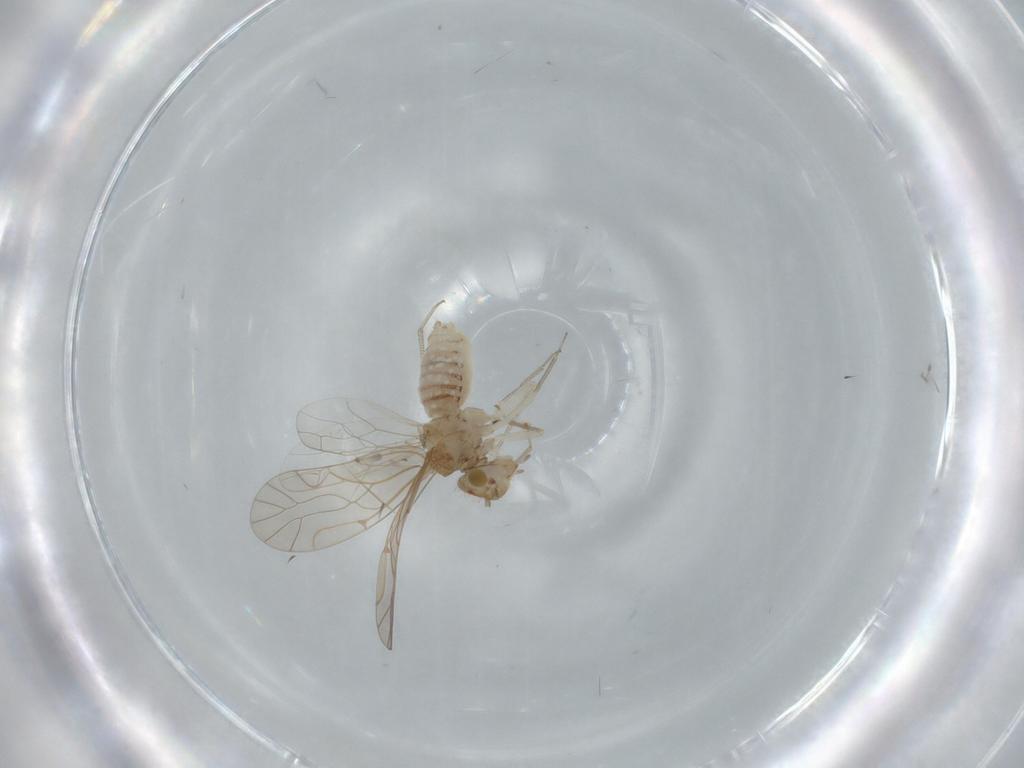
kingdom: Animalia
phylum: Arthropoda
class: Insecta
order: Psocodea
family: Lachesillidae
